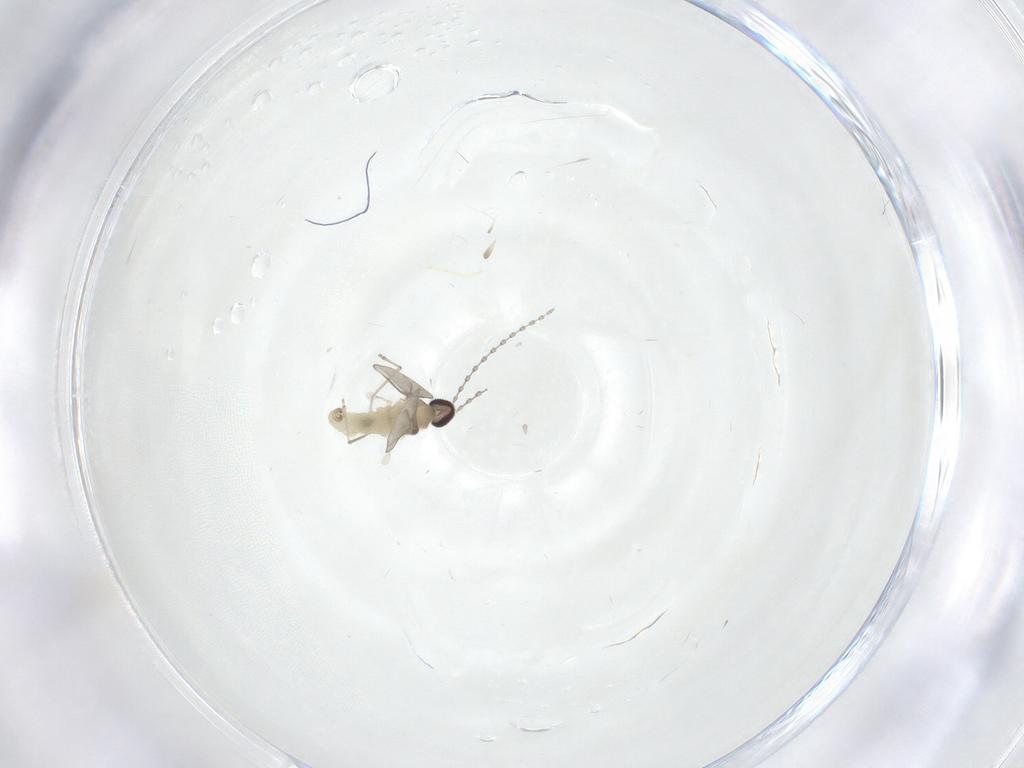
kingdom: Animalia
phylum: Arthropoda
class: Insecta
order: Diptera
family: Cecidomyiidae
